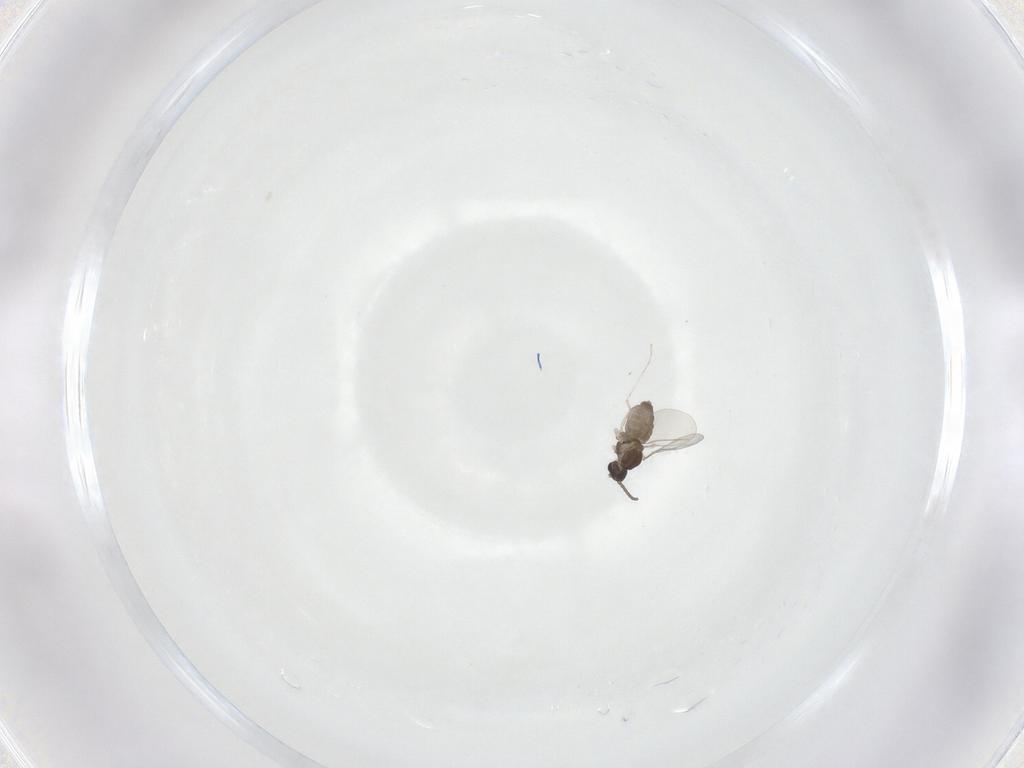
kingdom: Animalia
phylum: Arthropoda
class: Insecta
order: Diptera
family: Cecidomyiidae
